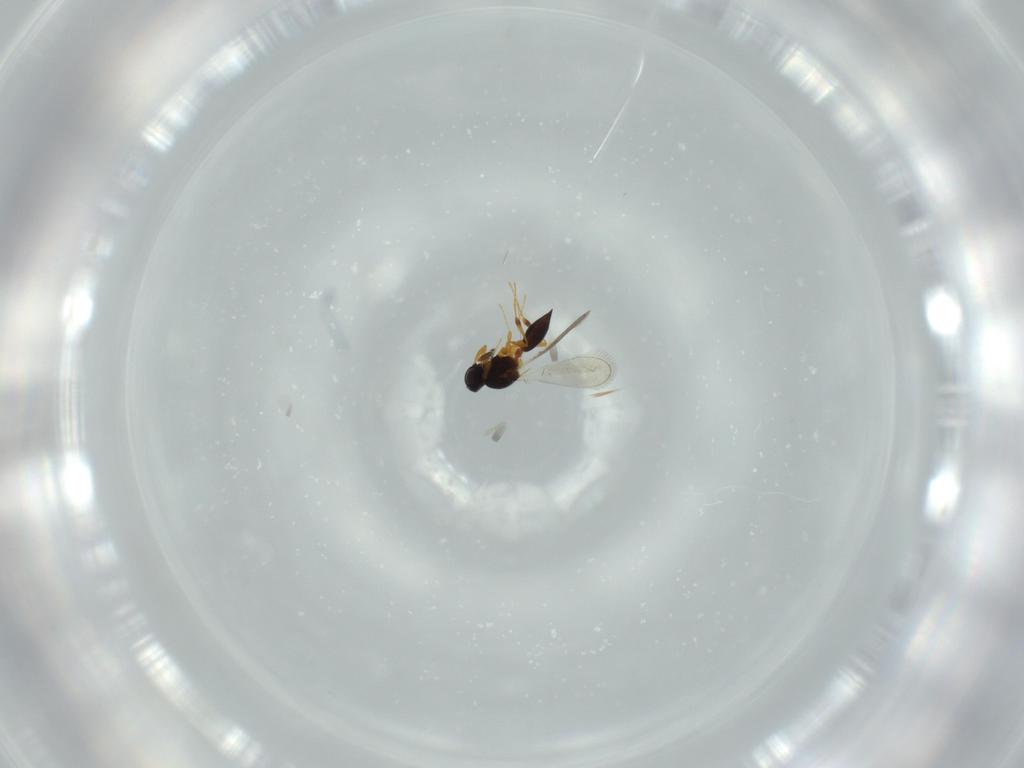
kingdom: Animalia
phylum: Arthropoda
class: Insecta
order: Hymenoptera
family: Platygastridae
